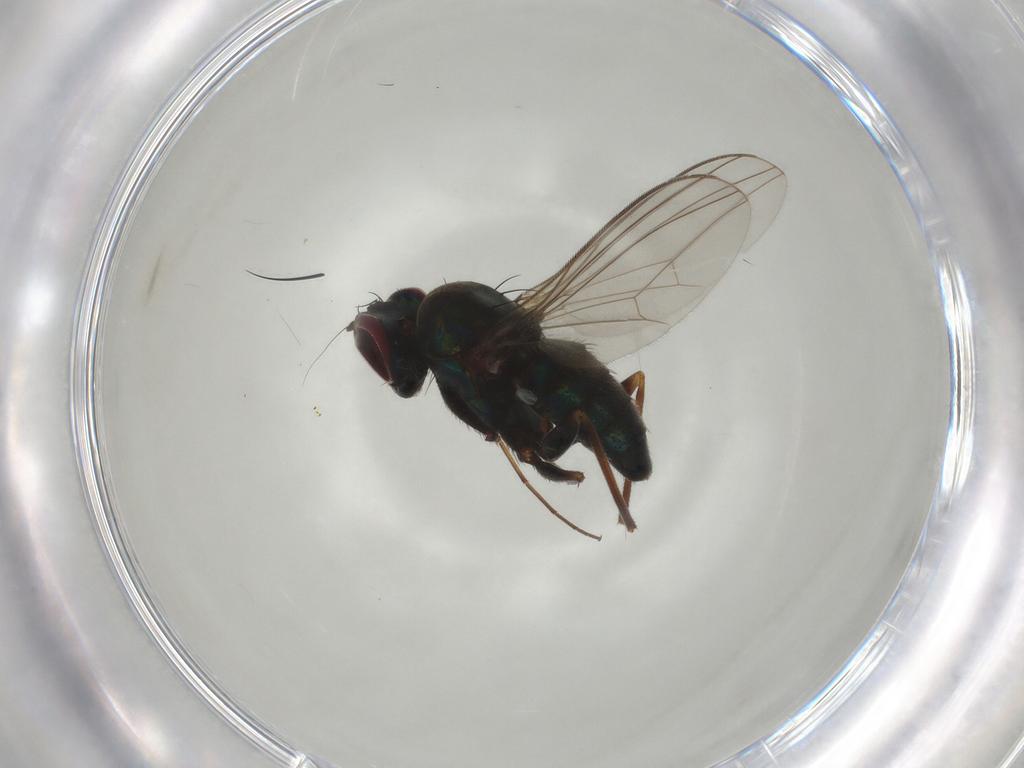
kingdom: Animalia
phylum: Arthropoda
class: Insecta
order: Diptera
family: Dolichopodidae
